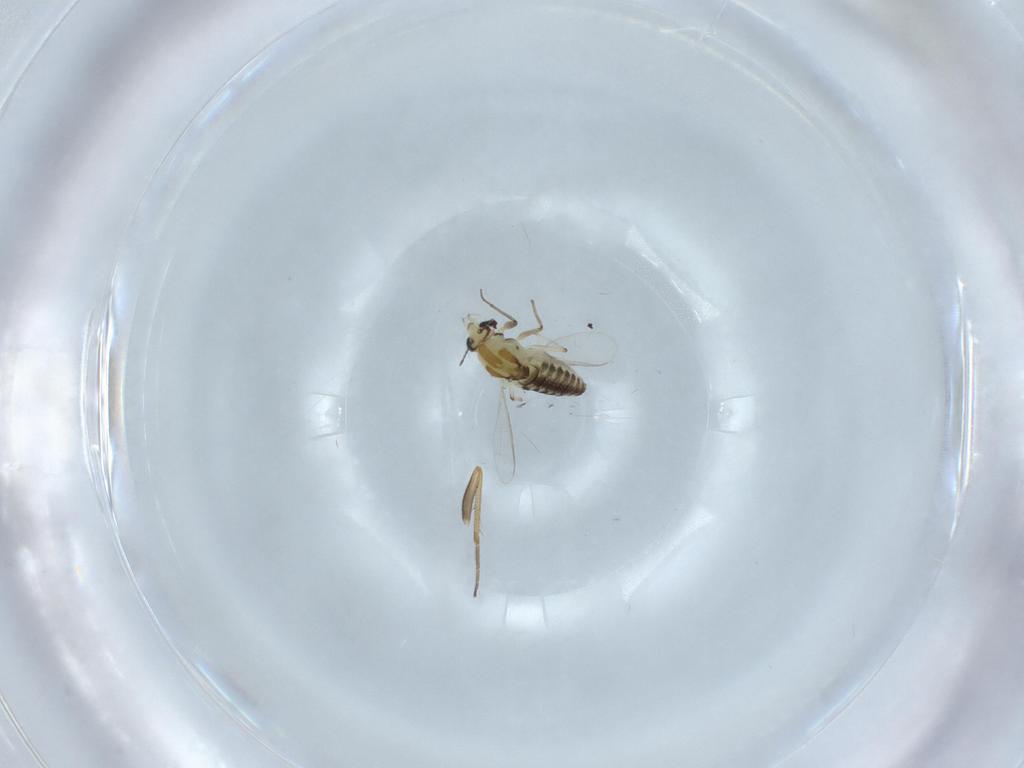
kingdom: Animalia
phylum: Arthropoda
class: Insecta
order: Diptera
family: Chironomidae
